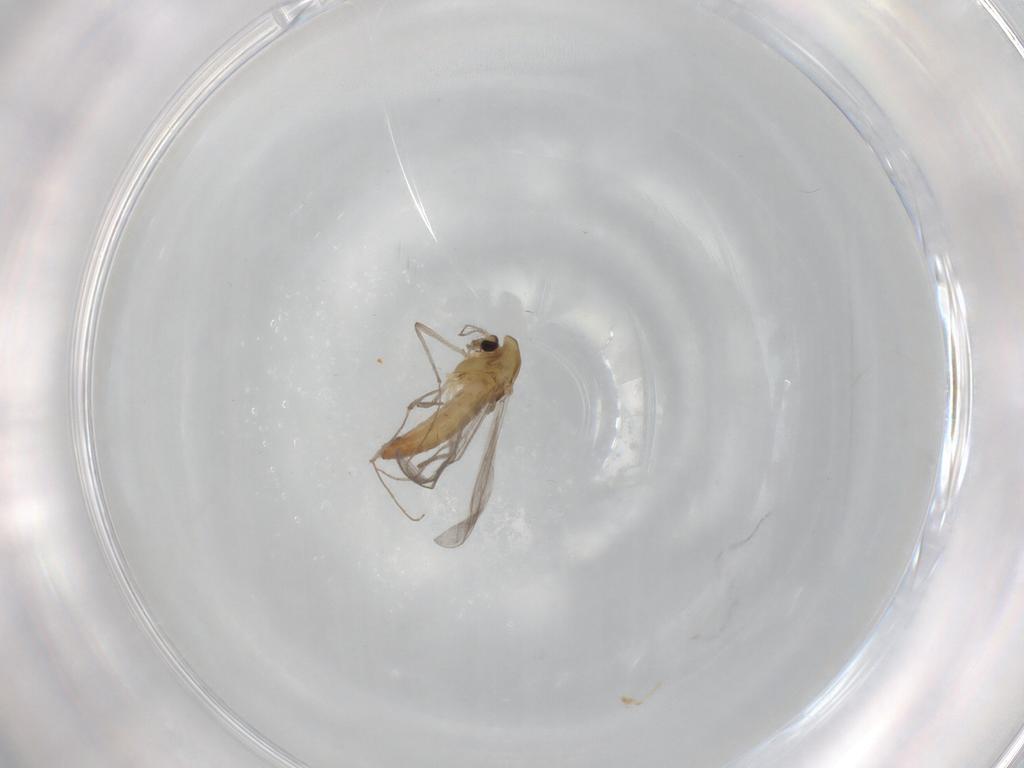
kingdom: Animalia
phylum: Arthropoda
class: Insecta
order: Diptera
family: Chironomidae
